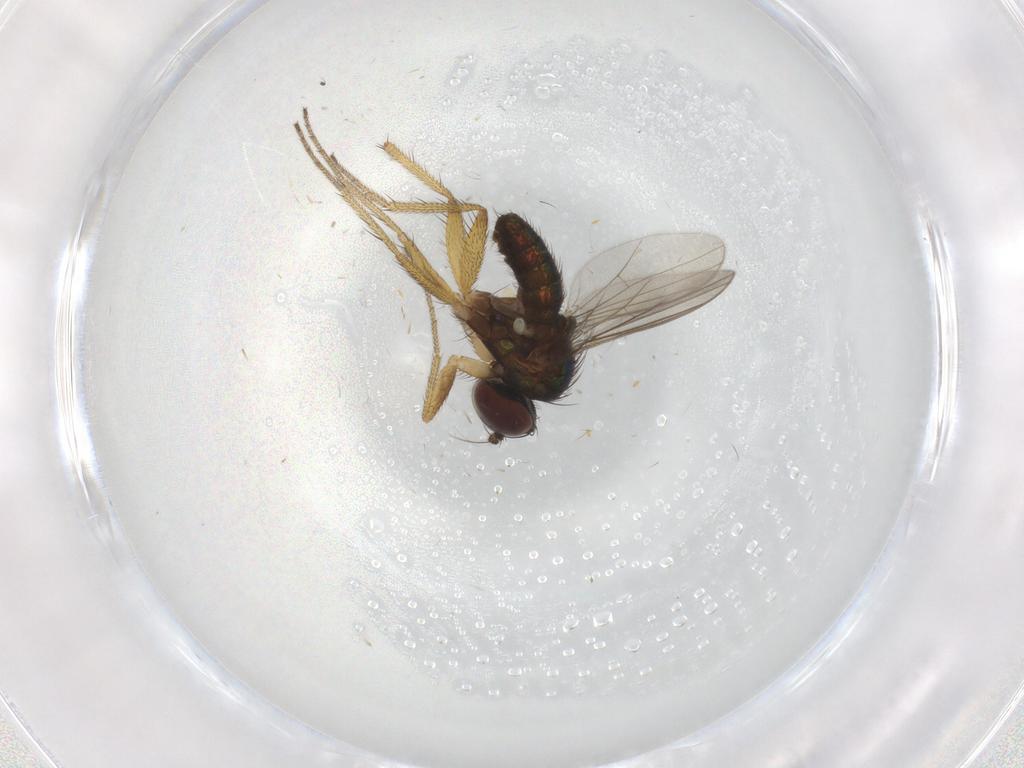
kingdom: Animalia
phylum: Arthropoda
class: Insecta
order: Diptera
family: Dolichopodidae
